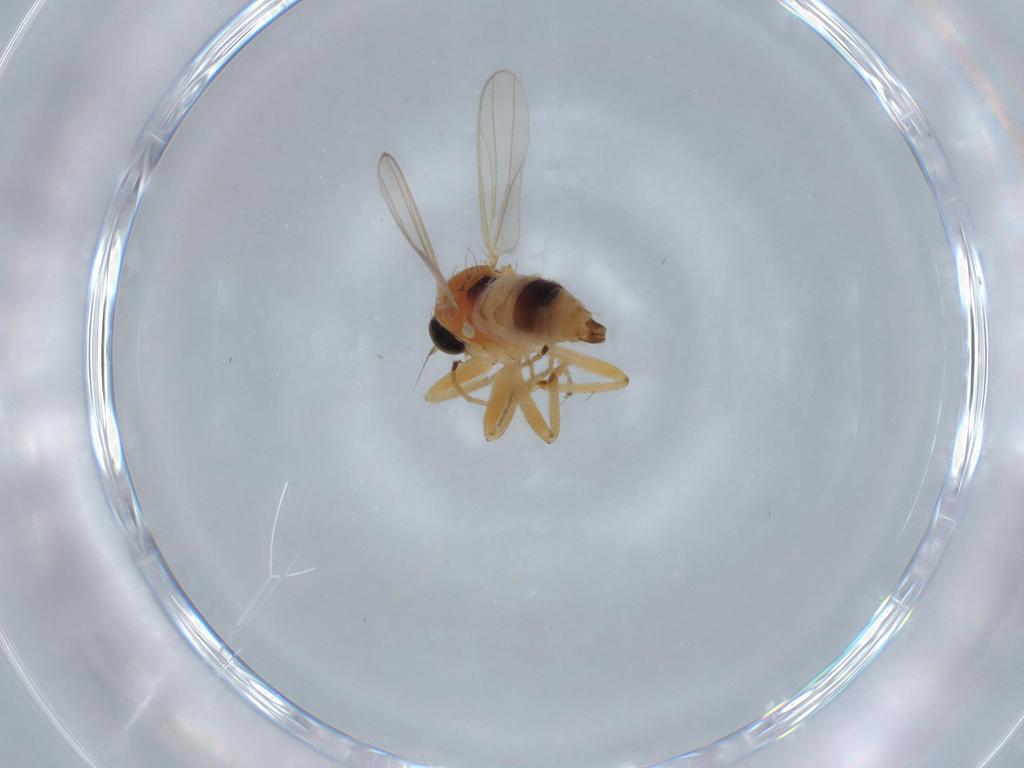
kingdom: Animalia
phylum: Arthropoda
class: Insecta
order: Diptera
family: Hybotidae
